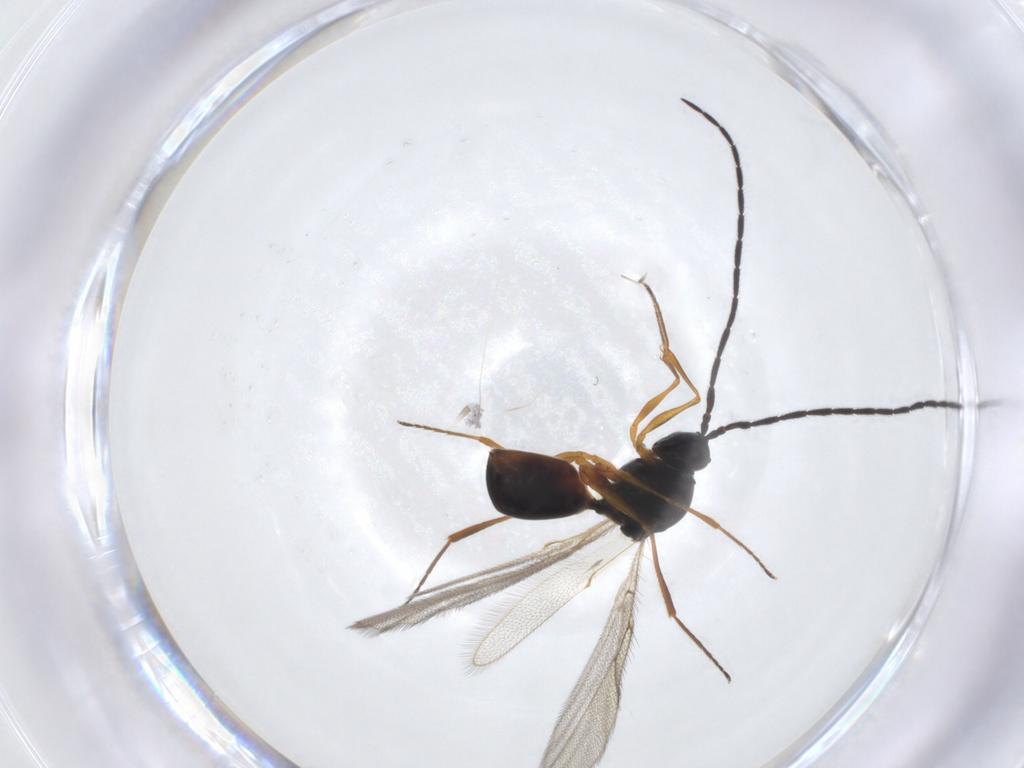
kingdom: Animalia
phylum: Arthropoda
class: Insecta
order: Hymenoptera
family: Figitidae
